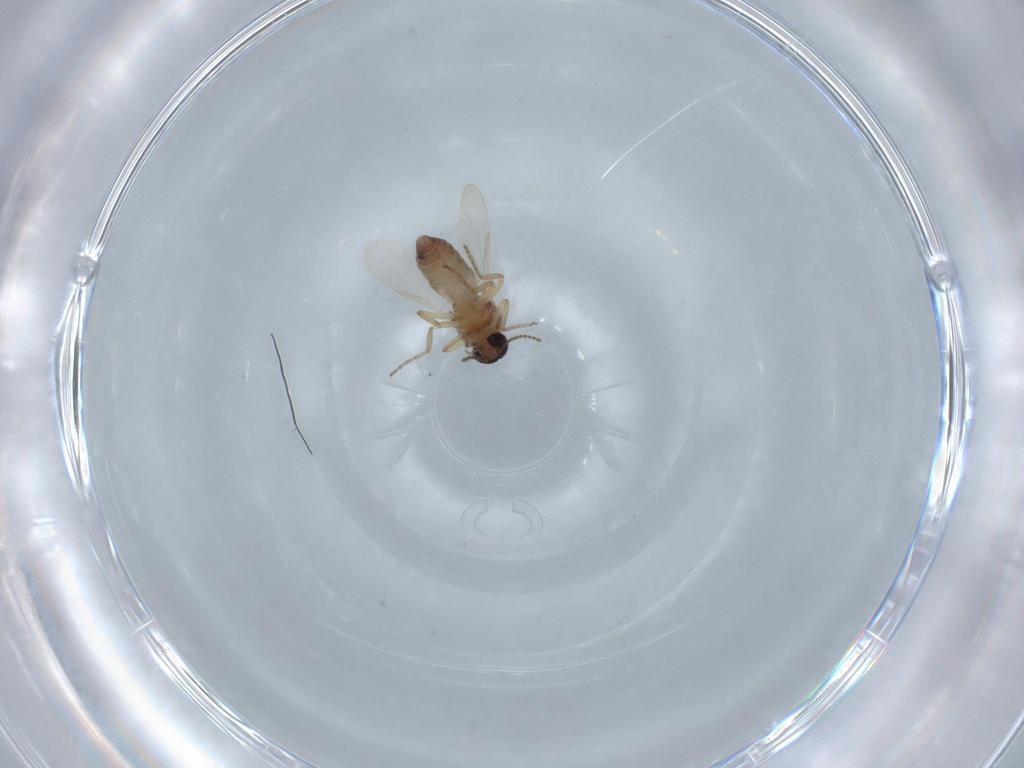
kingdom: Animalia
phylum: Arthropoda
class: Insecta
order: Diptera
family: Ceratopogonidae
